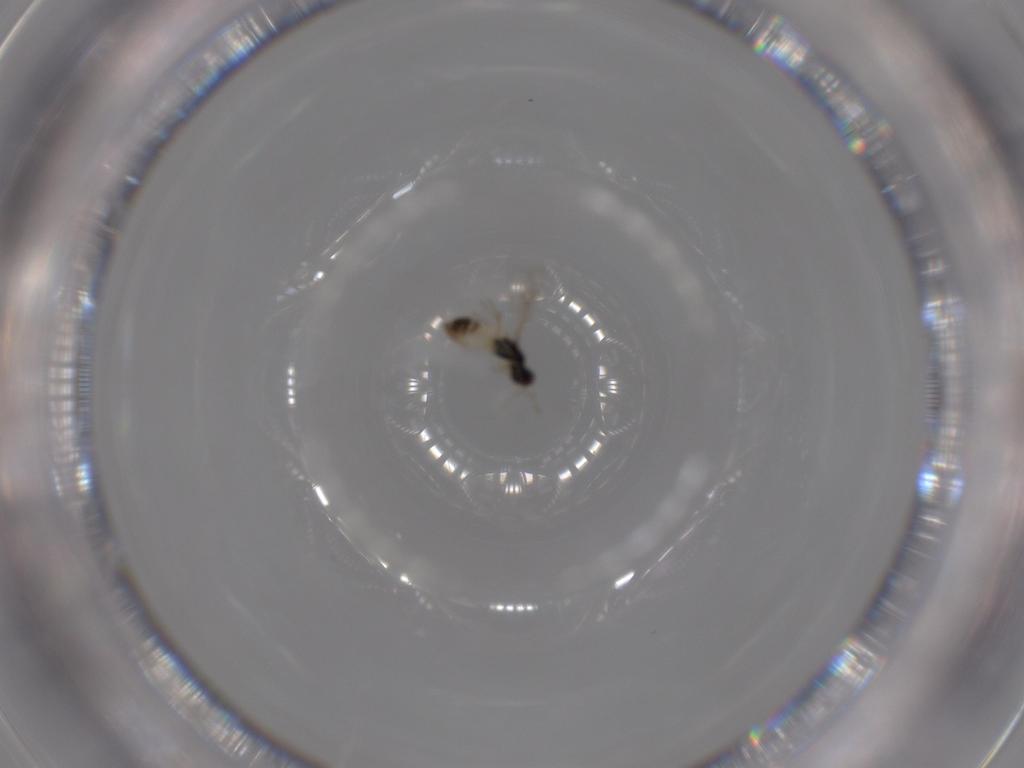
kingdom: Animalia
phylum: Arthropoda
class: Insecta
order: Hymenoptera
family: Eulophidae
